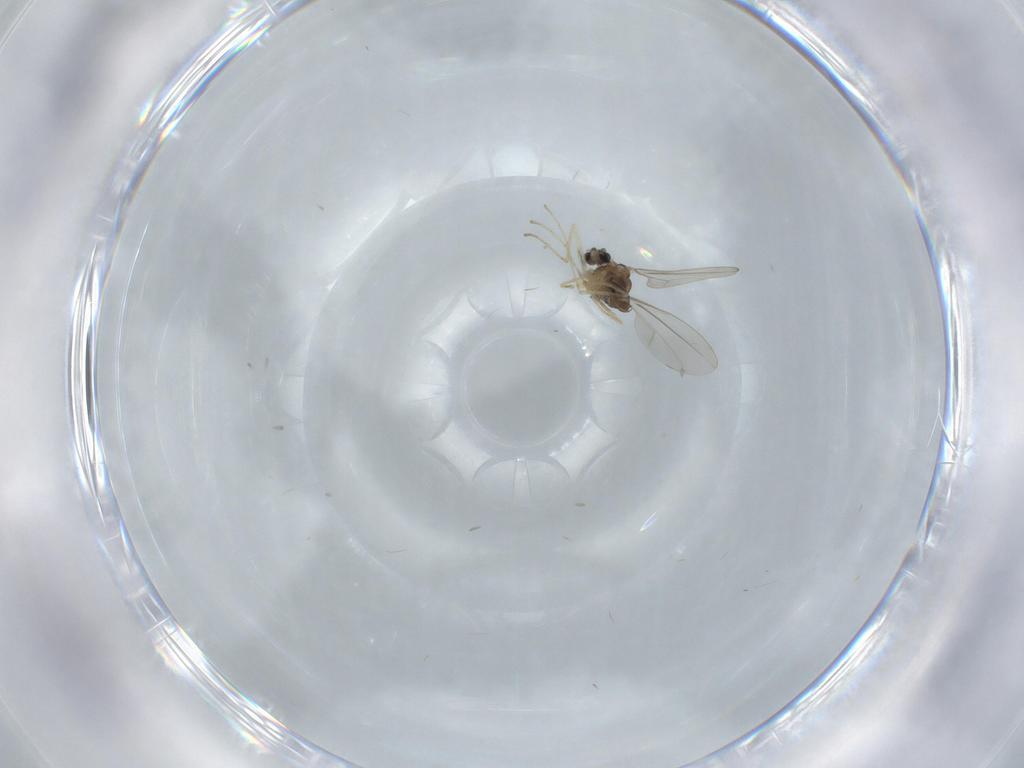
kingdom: Animalia
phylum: Arthropoda
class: Insecta
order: Diptera
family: Cecidomyiidae
